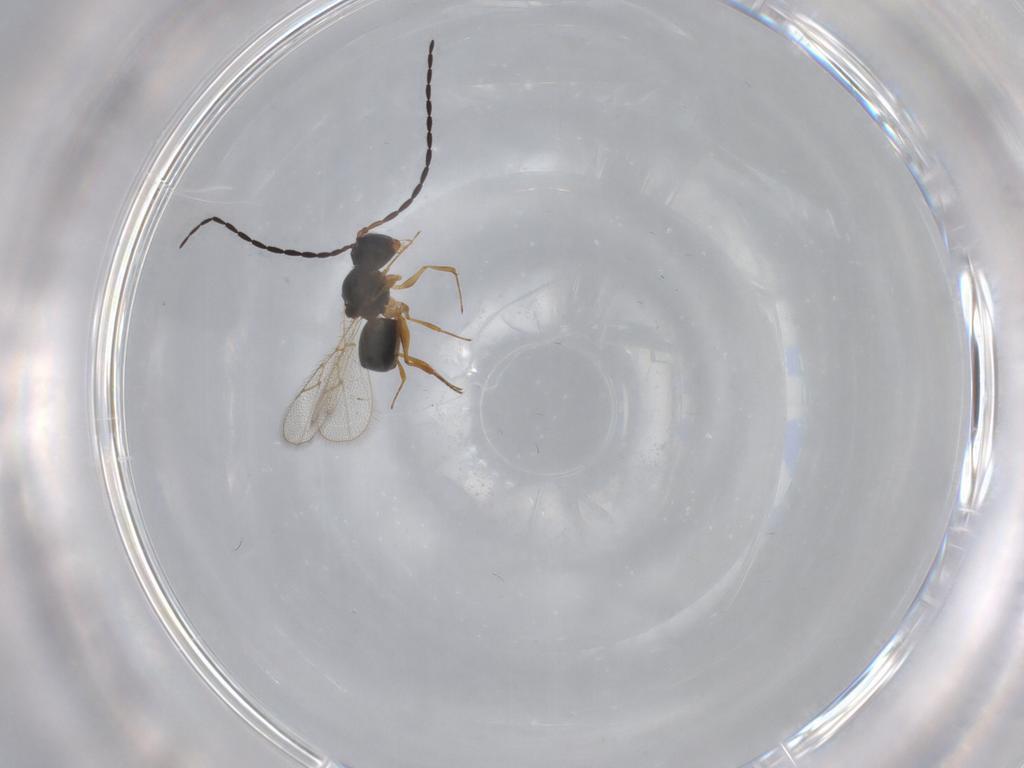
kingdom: Animalia
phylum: Arthropoda
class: Insecta
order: Hymenoptera
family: Figitidae
